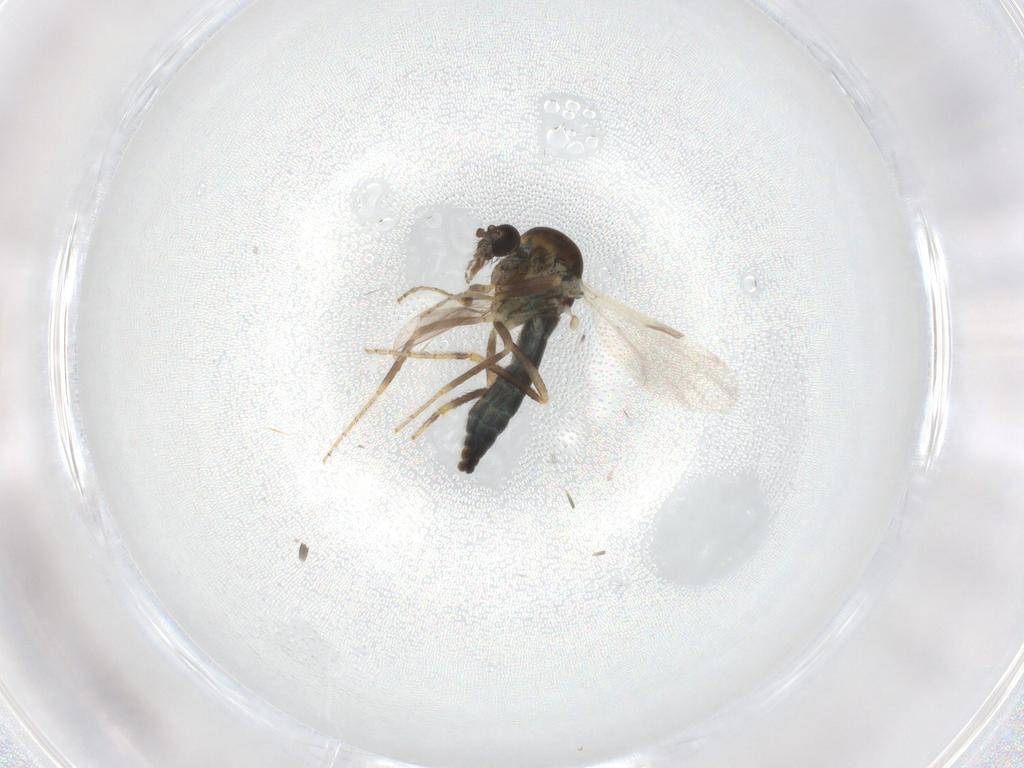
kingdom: Animalia
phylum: Arthropoda
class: Insecta
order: Diptera
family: Ceratopogonidae
